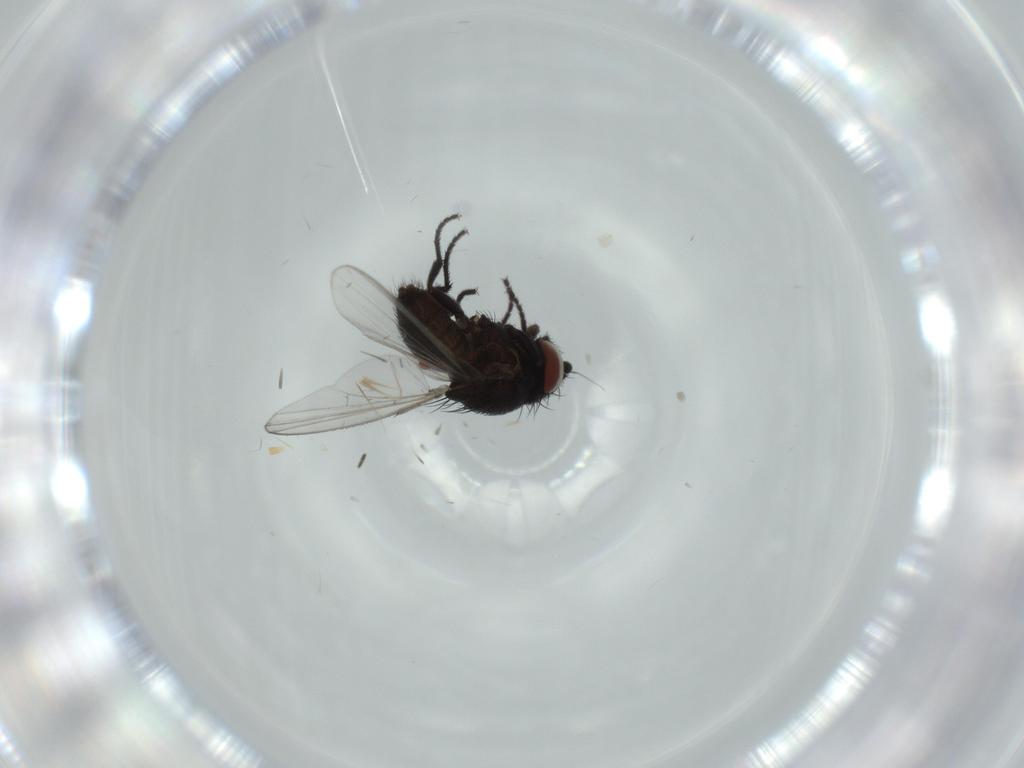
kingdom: Animalia
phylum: Arthropoda
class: Insecta
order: Diptera
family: Milichiidae
